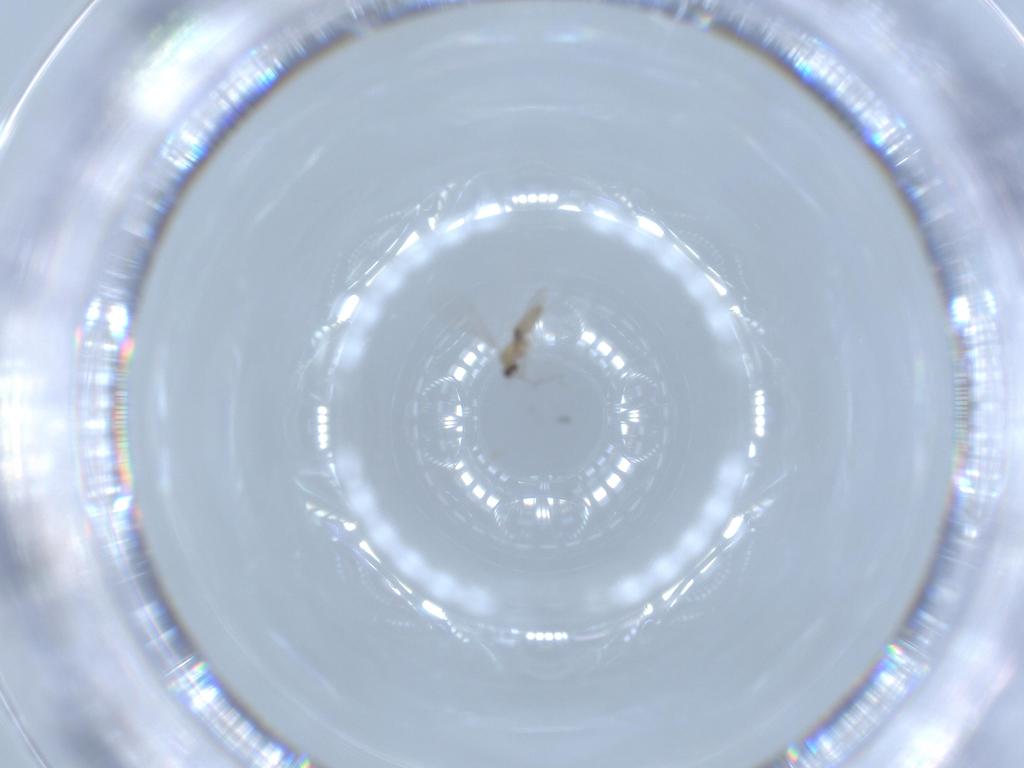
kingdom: Animalia
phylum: Arthropoda
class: Insecta
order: Diptera
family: Cecidomyiidae
